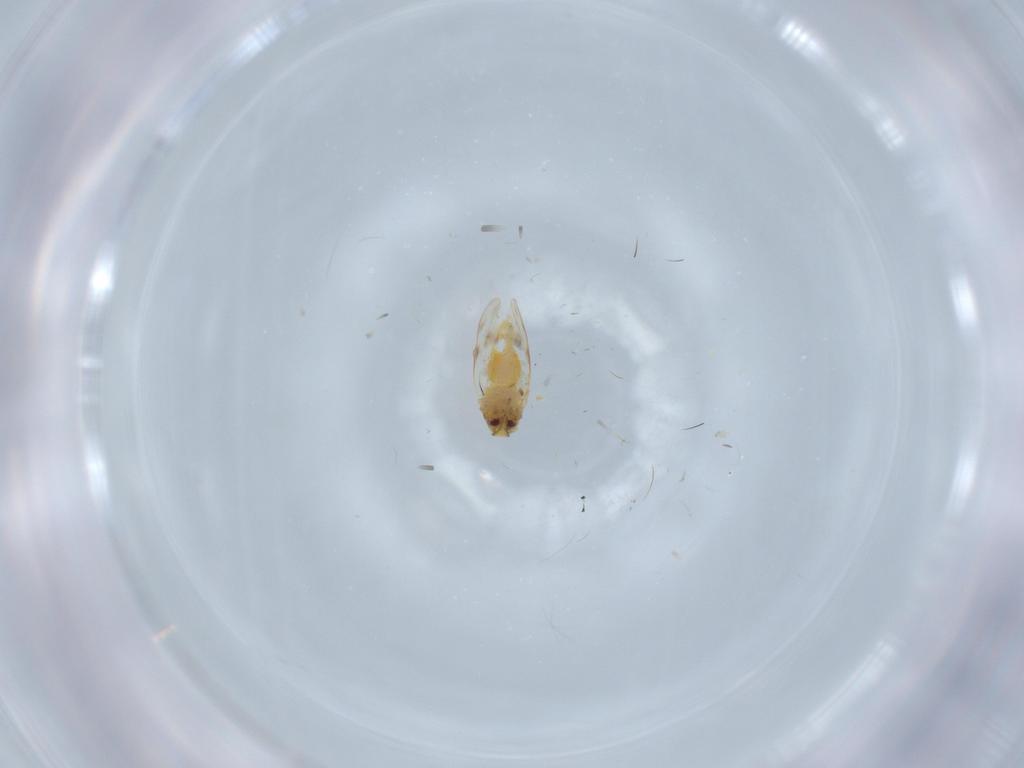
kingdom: Animalia
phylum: Arthropoda
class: Insecta
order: Hemiptera
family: Aleyrodidae
